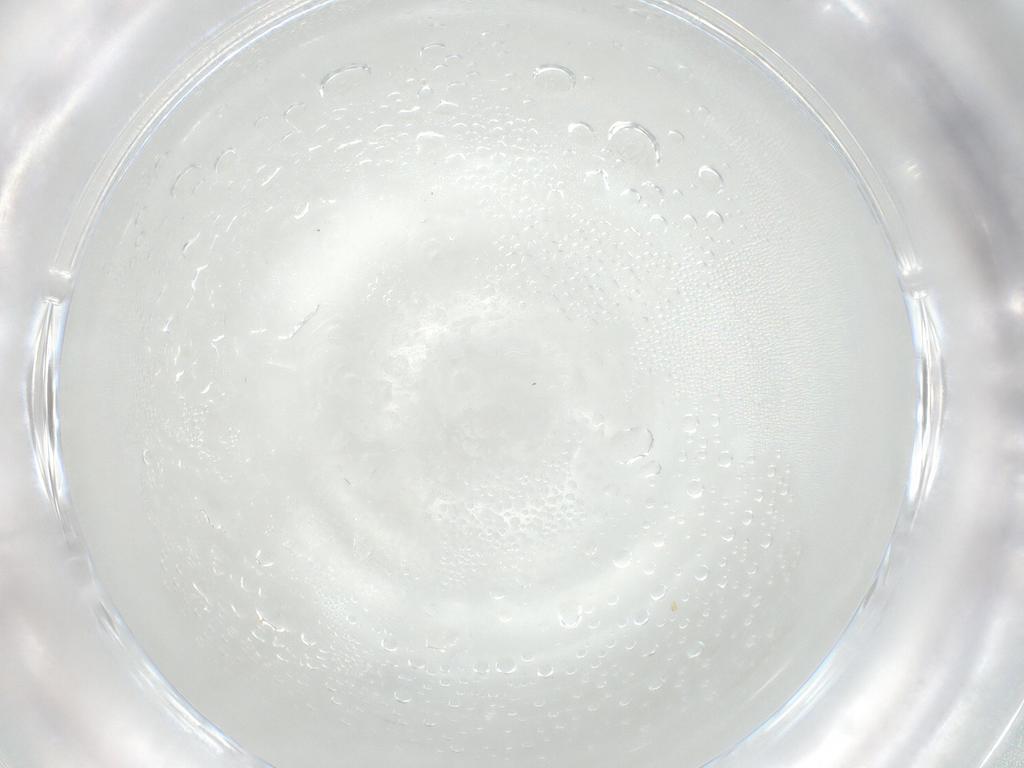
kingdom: Animalia
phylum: Arthropoda
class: Insecta
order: Diptera
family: Cecidomyiidae
